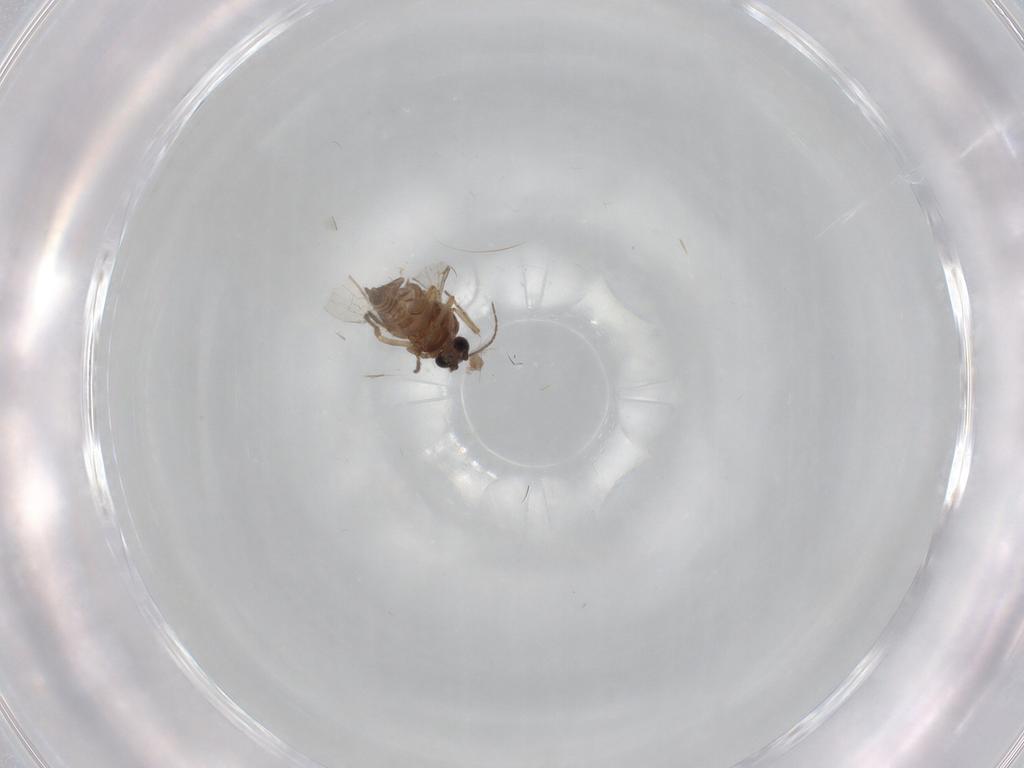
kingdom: Animalia
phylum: Arthropoda
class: Insecta
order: Diptera
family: Ceratopogonidae
